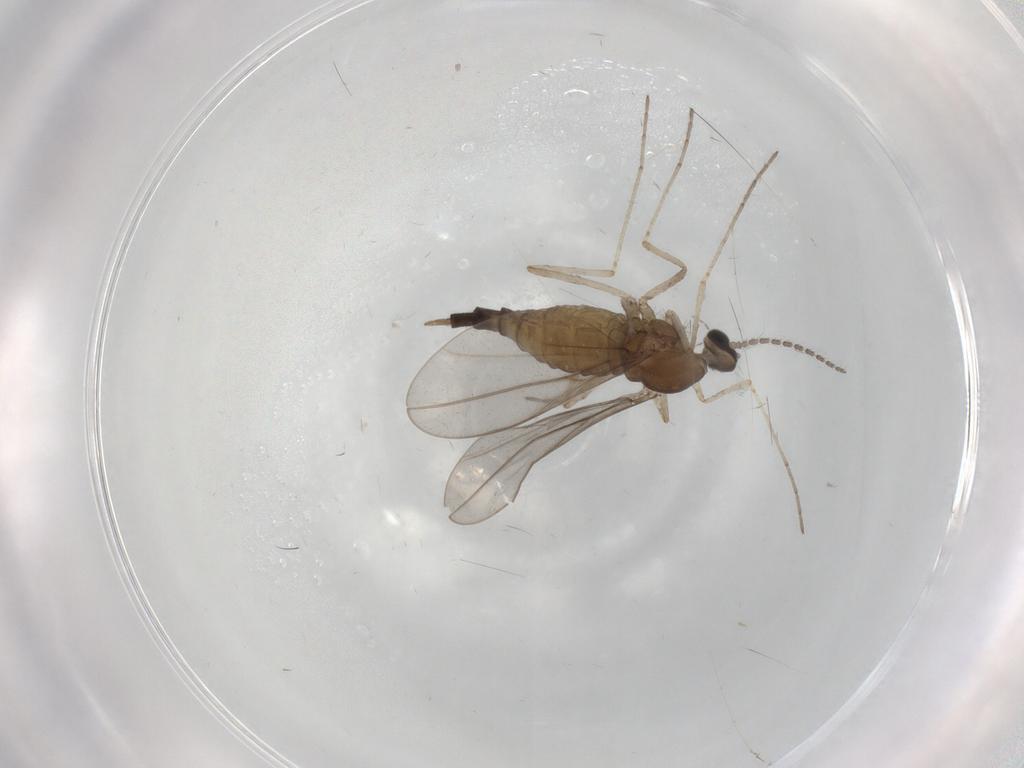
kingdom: Animalia
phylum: Arthropoda
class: Insecta
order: Diptera
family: Cecidomyiidae
